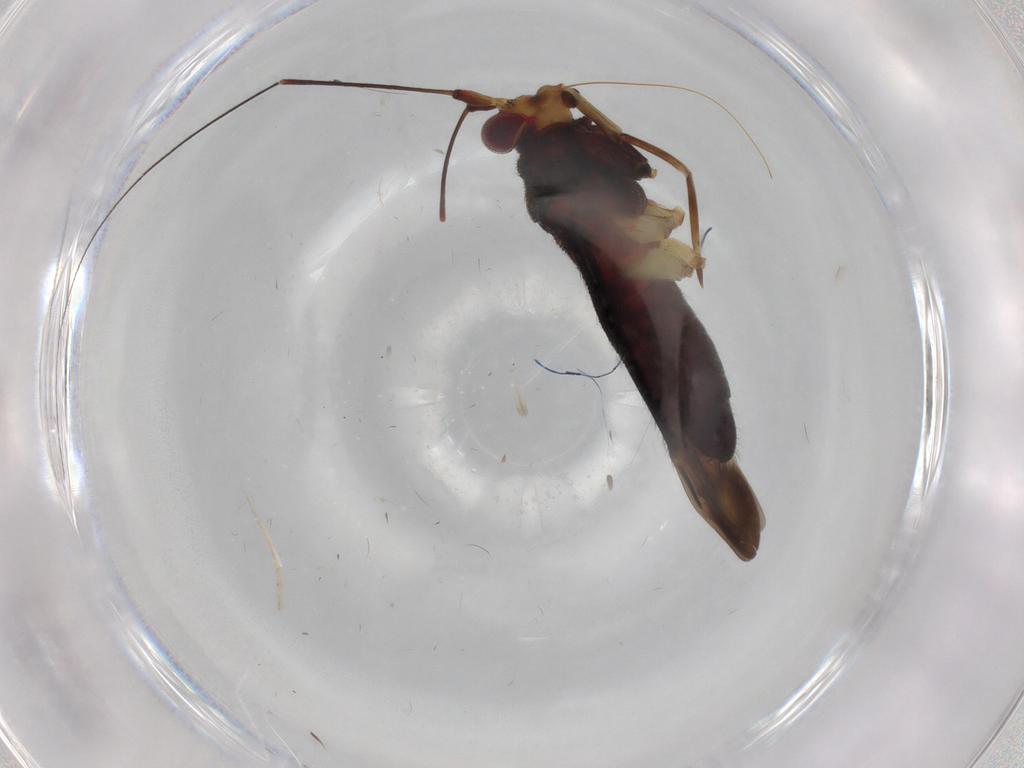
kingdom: Animalia
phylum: Arthropoda
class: Insecta
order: Hemiptera
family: Miridae
